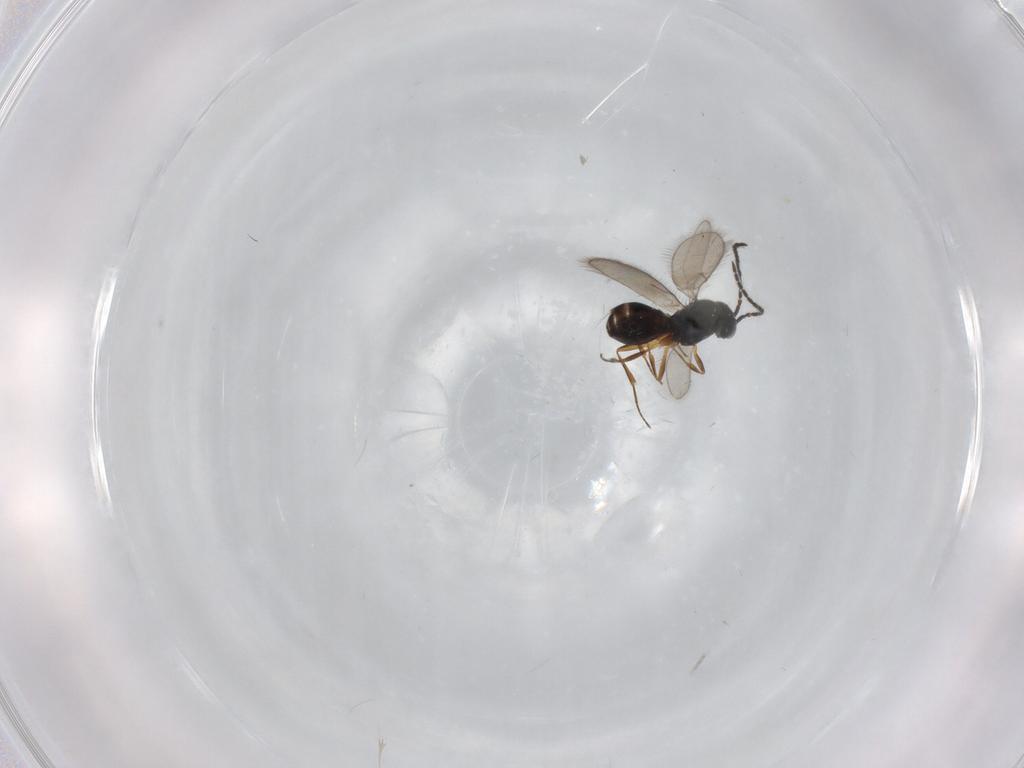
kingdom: Animalia
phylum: Arthropoda
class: Insecta
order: Hymenoptera
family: Scelionidae
